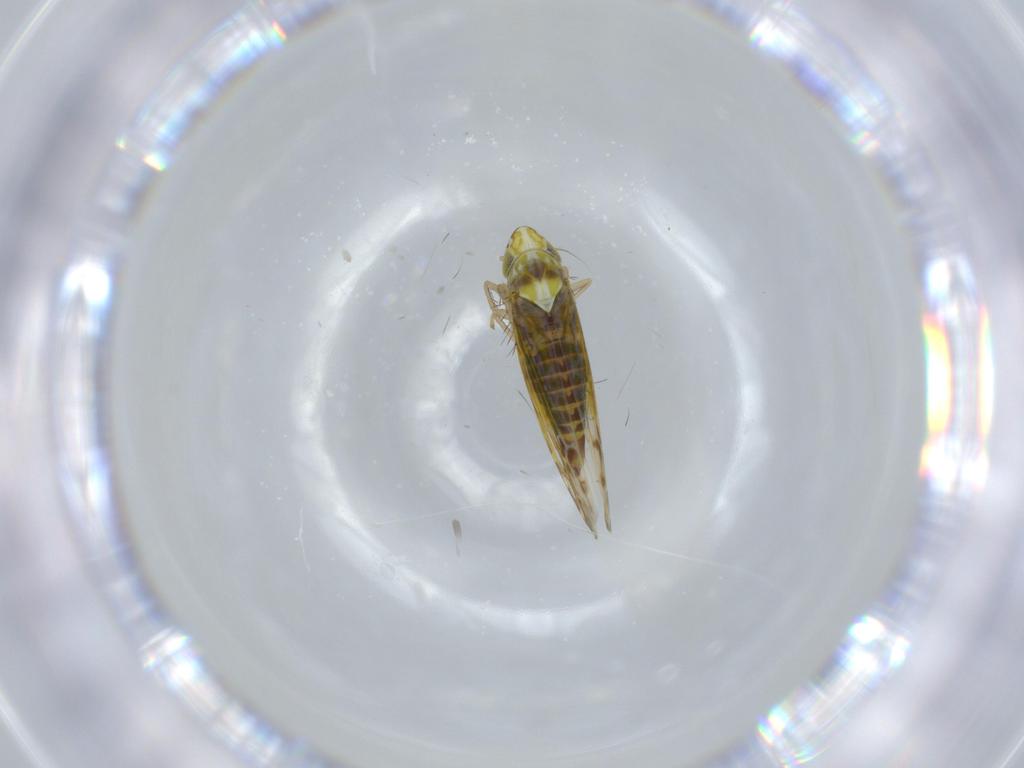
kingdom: Animalia
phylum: Arthropoda
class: Insecta
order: Hemiptera
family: Cicadellidae
